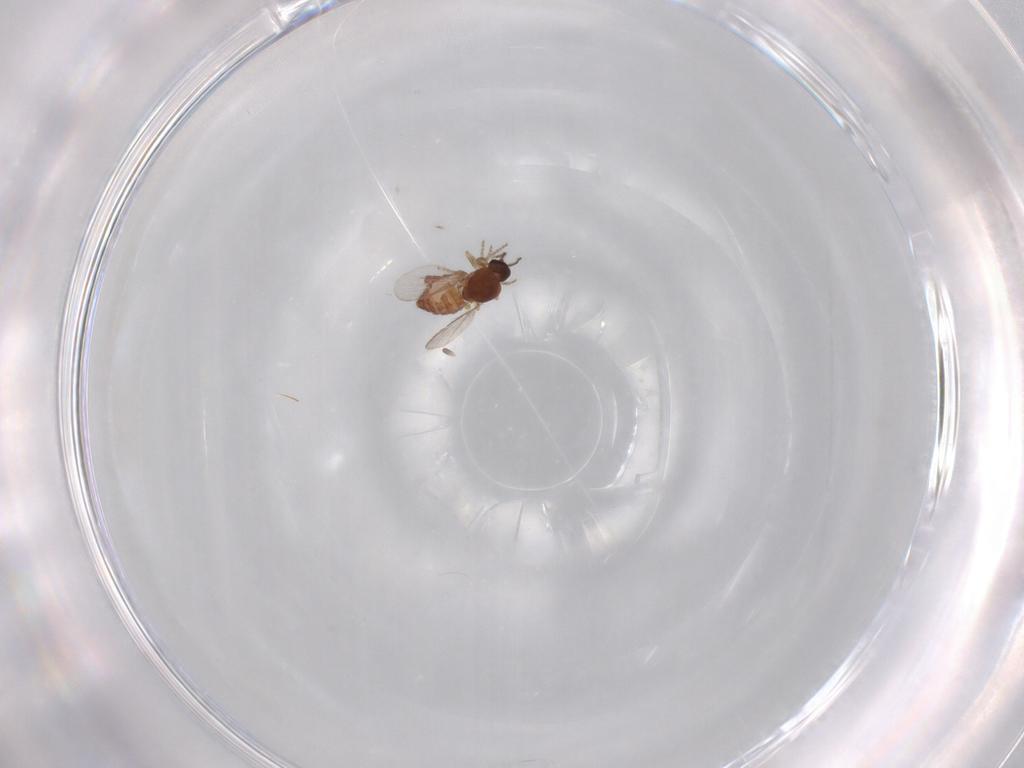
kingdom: Animalia
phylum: Arthropoda
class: Insecta
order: Diptera
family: Ceratopogonidae
